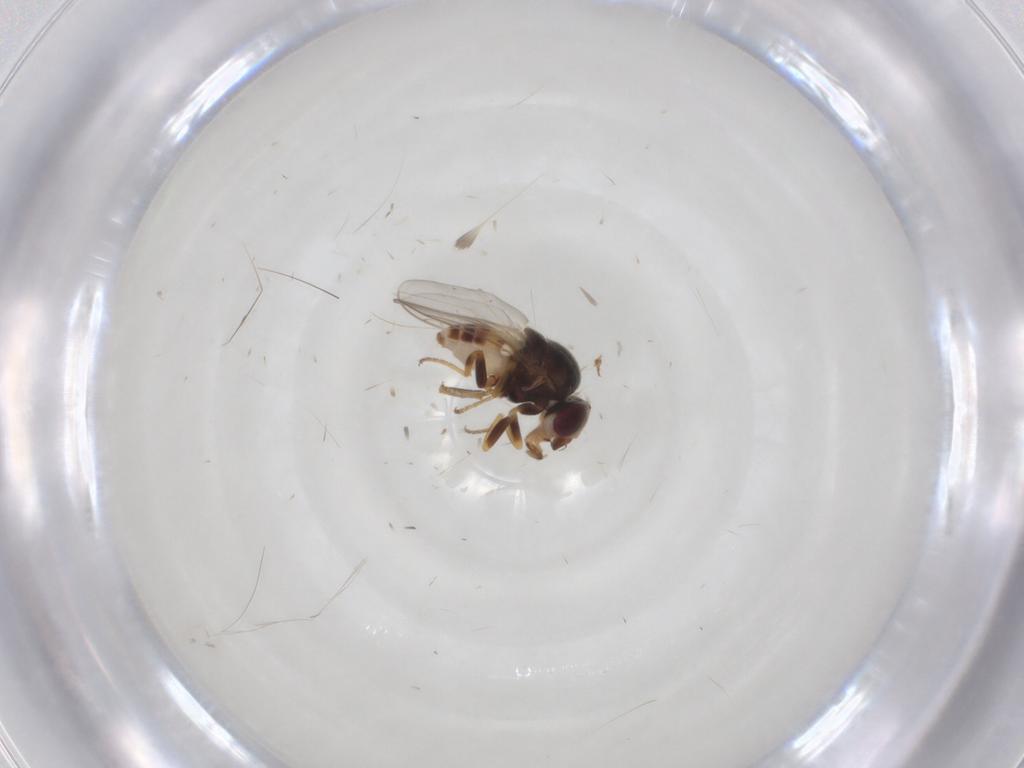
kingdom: Animalia
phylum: Arthropoda
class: Insecta
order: Diptera
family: Chloropidae
